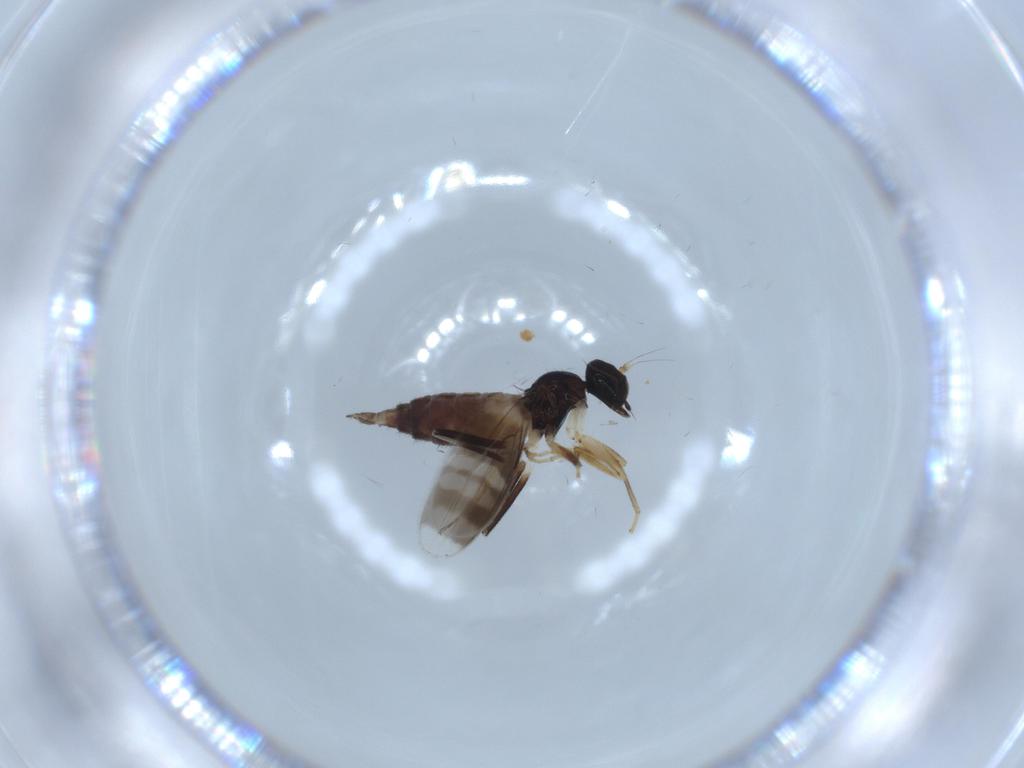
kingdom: Animalia
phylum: Arthropoda
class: Insecta
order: Diptera
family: Hybotidae
